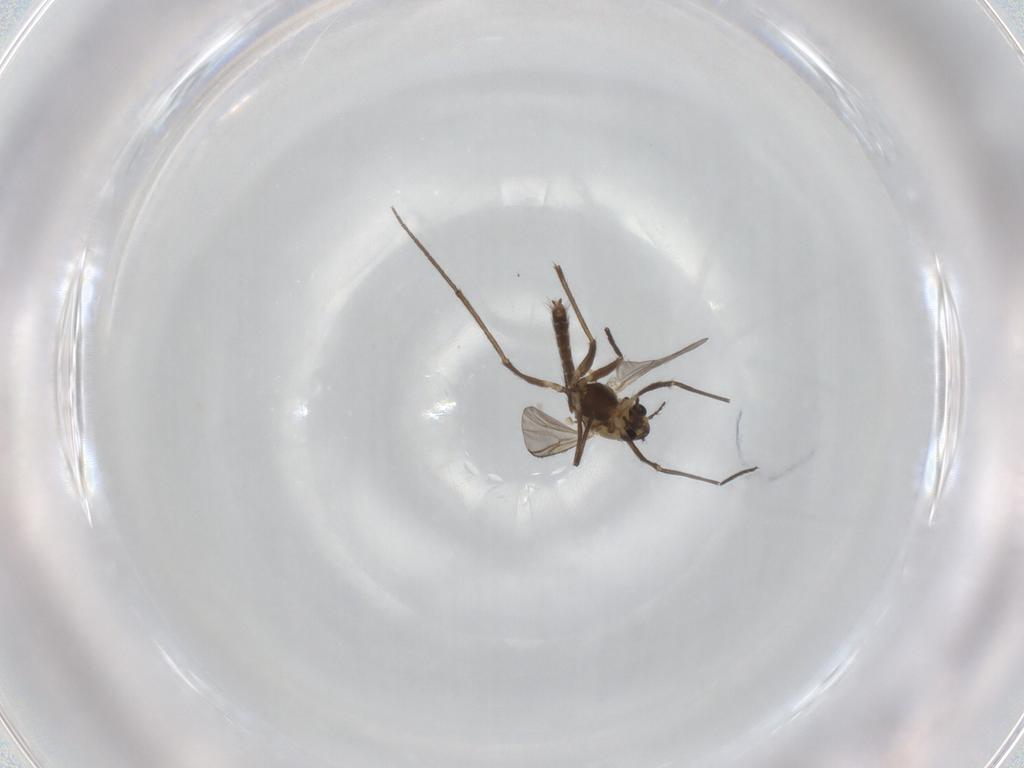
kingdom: Animalia
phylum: Arthropoda
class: Insecta
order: Diptera
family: Chironomidae
